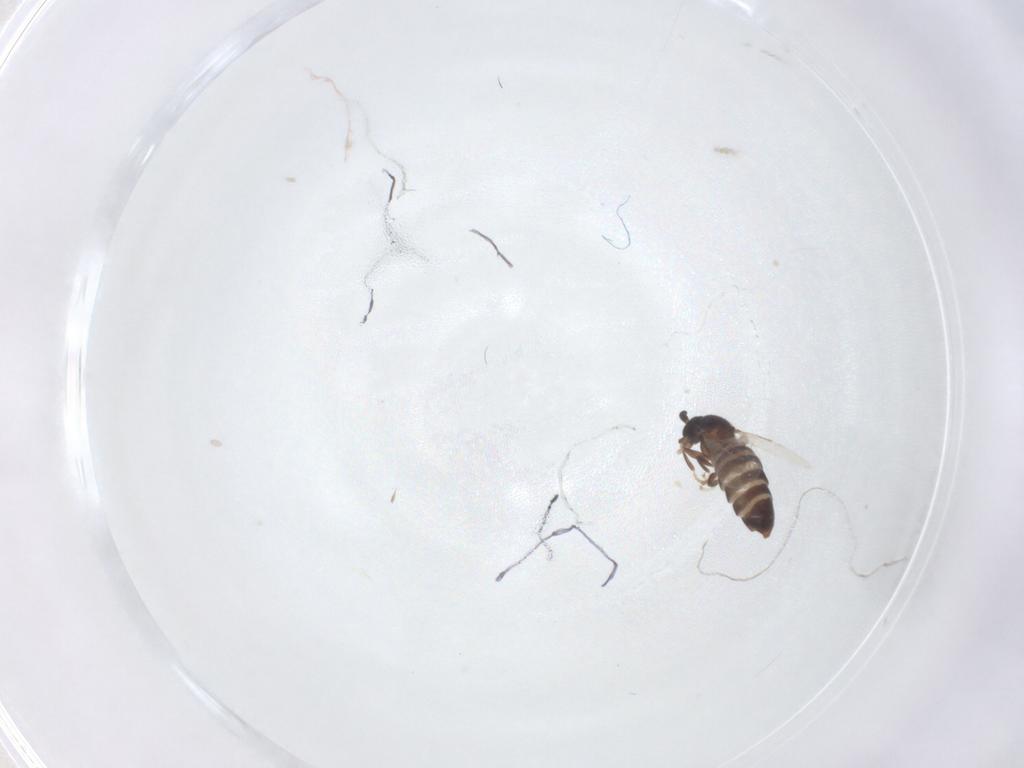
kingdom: Animalia
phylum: Arthropoda
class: Insecta
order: Diptera
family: Scatopsidae
